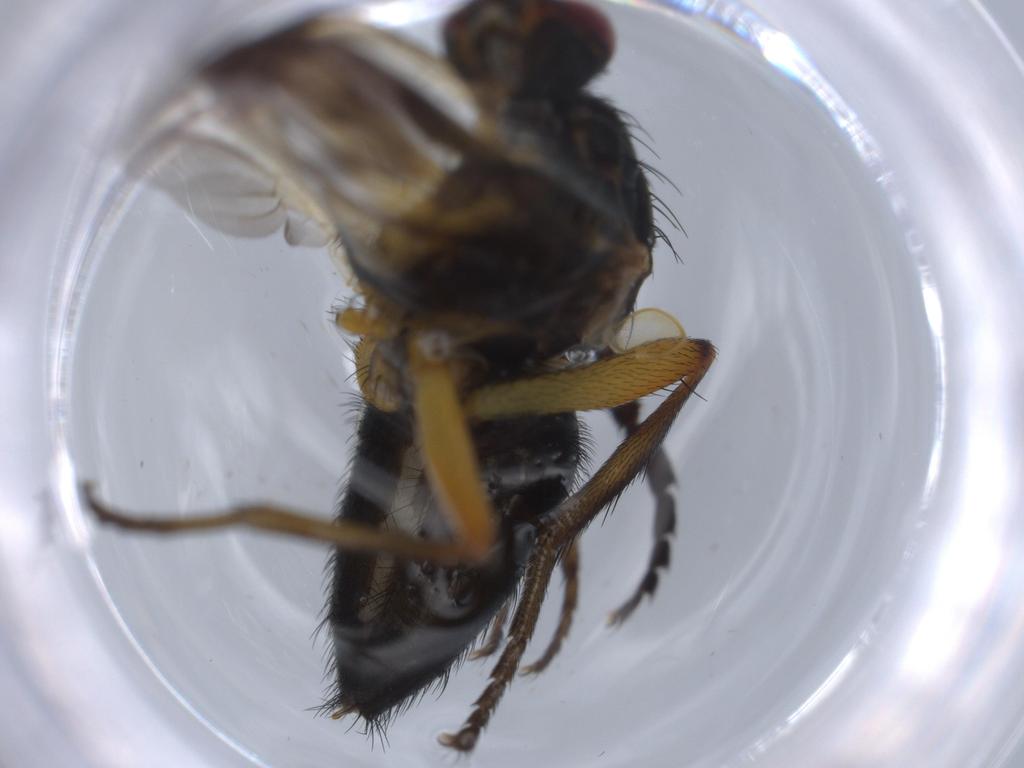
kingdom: Animalia
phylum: Arthropoda
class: Insecta
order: Diptera
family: Calliphoridae
